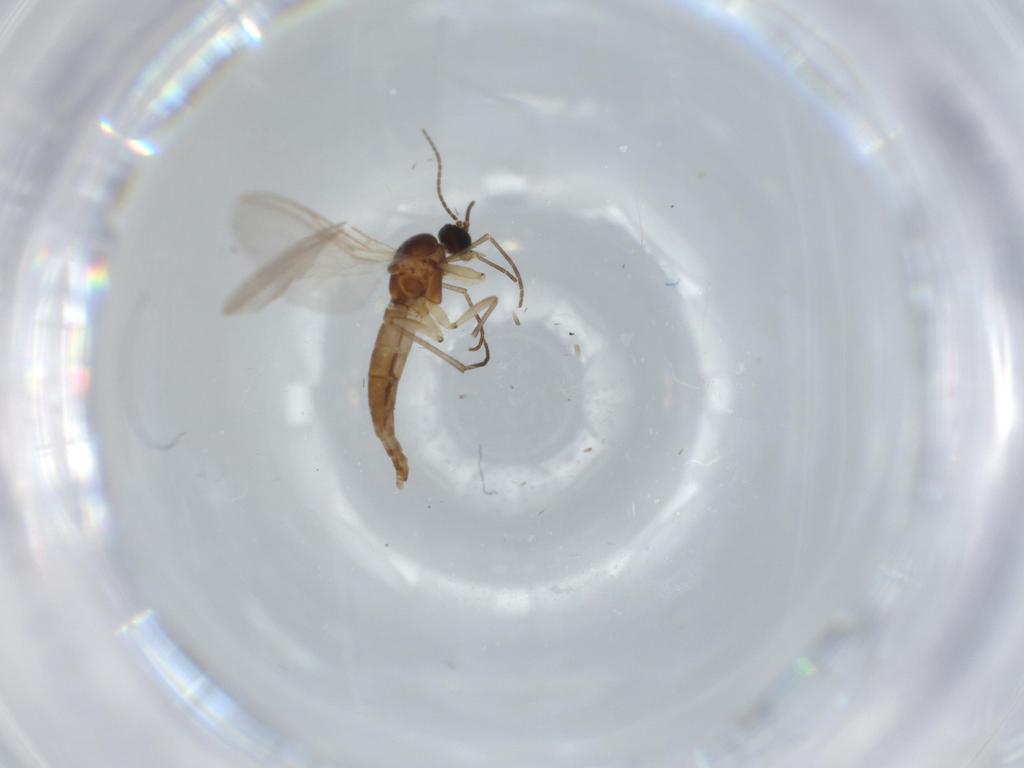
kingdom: Animalia
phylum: Arthropoda
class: Insecta
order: Diptera
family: Sciaridae
